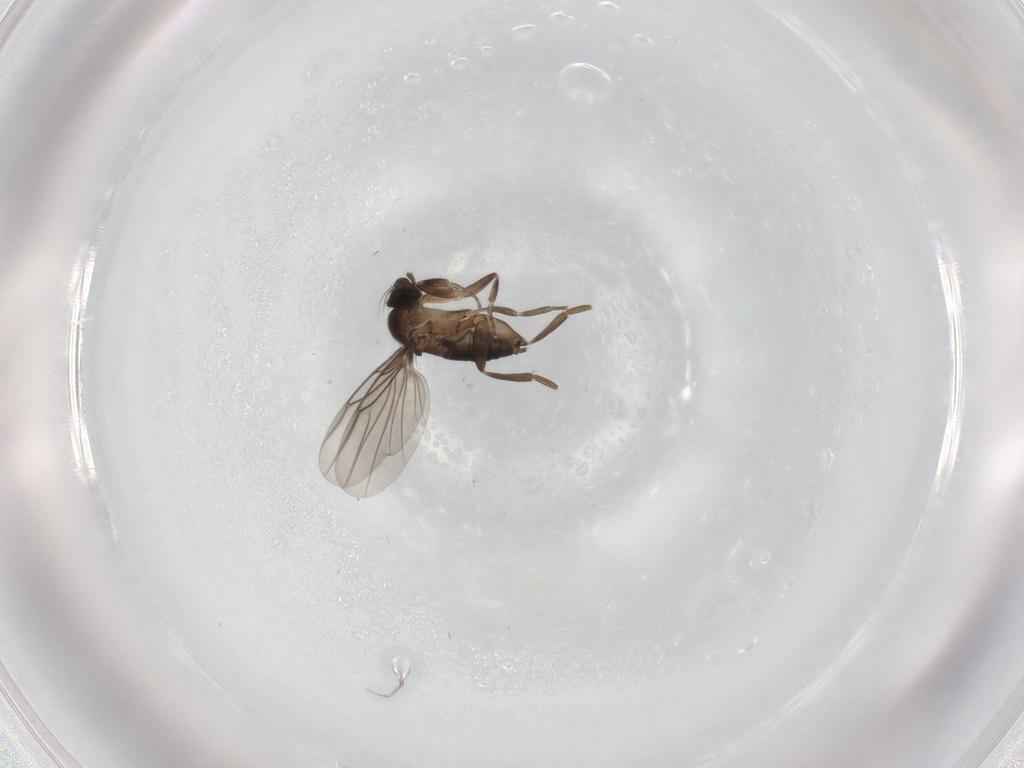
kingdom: Animalia
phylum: Arthropoda
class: Insecta
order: Diptera
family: Phoridae
